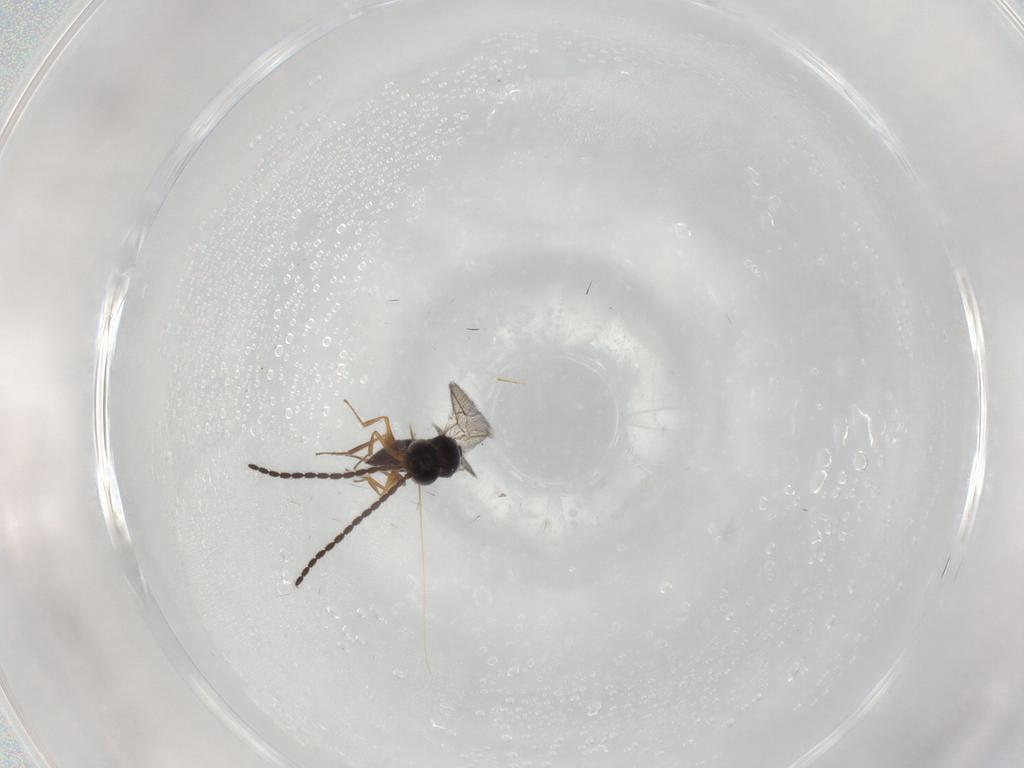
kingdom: Animalia
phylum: Arthropoda
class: Insecta
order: Hymenoptera
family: Figitidae
